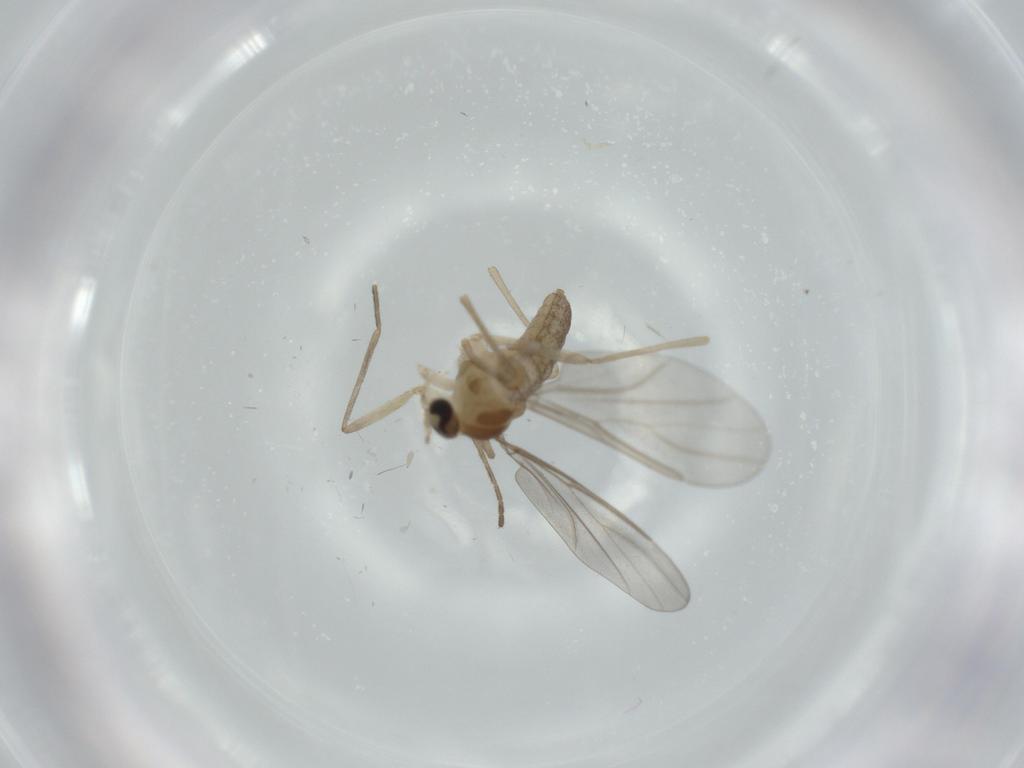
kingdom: Animalia
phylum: Arthropoda
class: Insecta
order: Diptera
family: Cecidomyiidae
